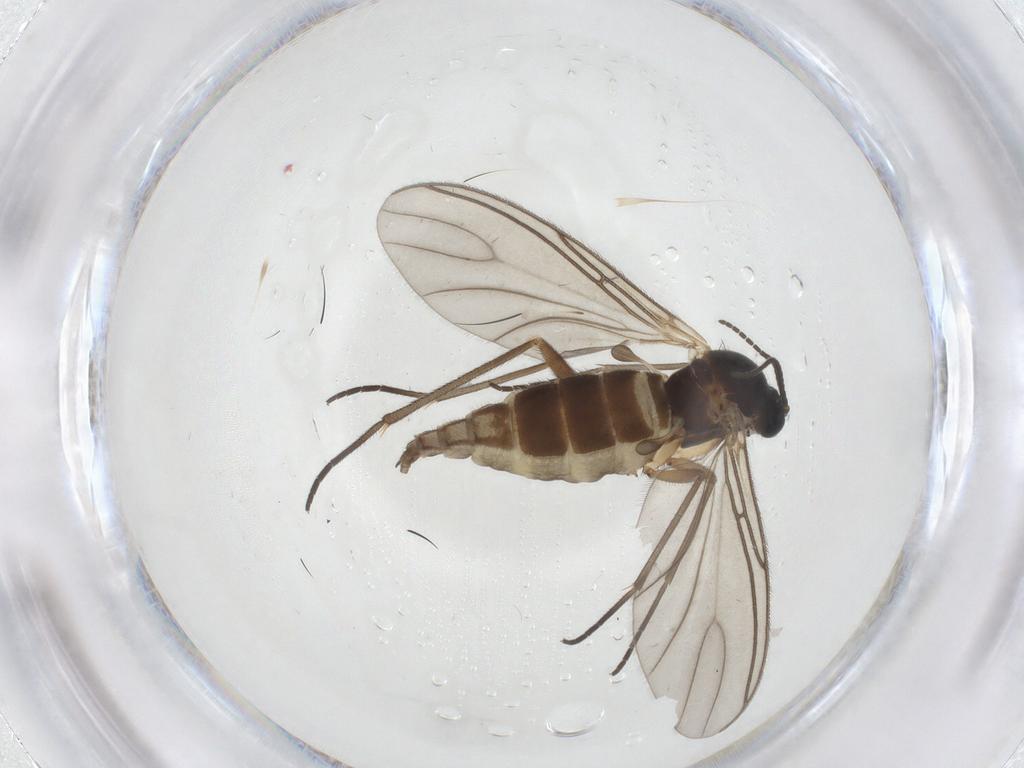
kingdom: Animalia
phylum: Arthropoda
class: Insecta
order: Diptera
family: Sciaridae
